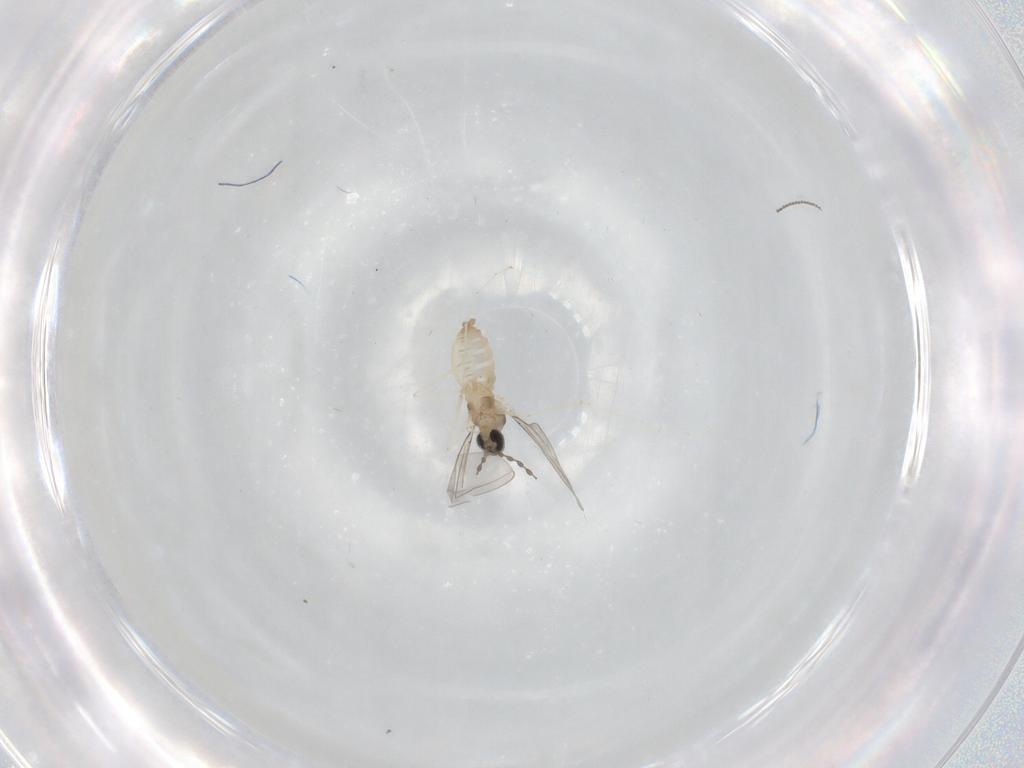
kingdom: Animalia
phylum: Arthropoda
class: Insecta
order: Diptera
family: Cecidomyiidae
